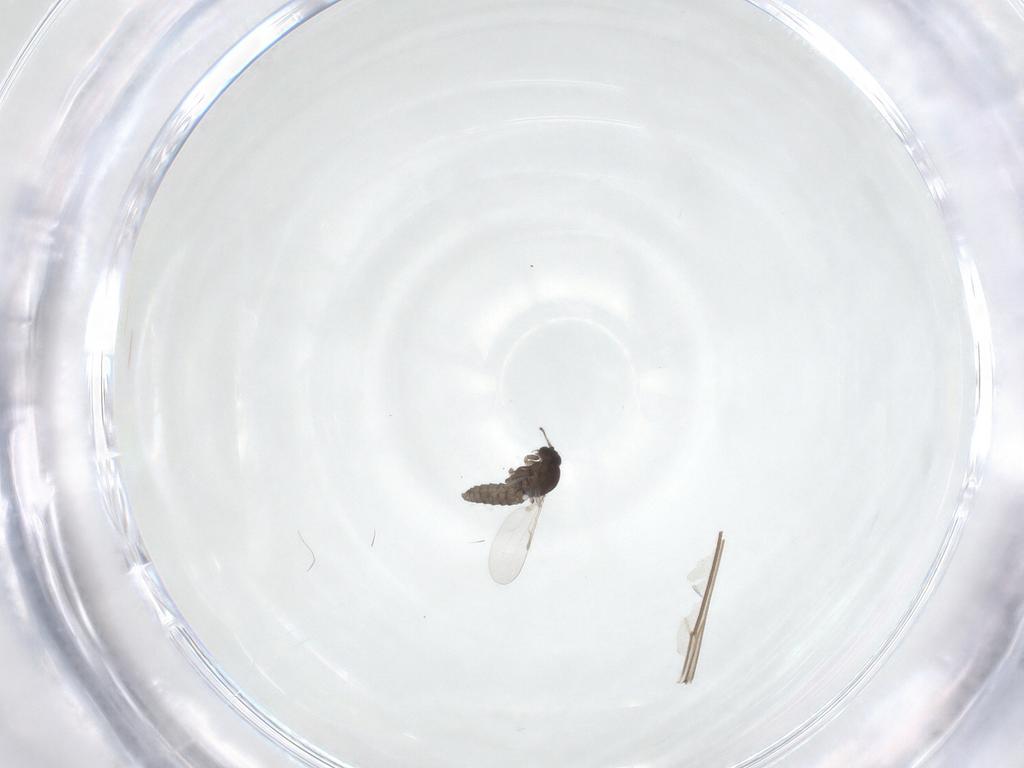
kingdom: Animalia
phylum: Arthropoda
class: Insecta
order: Diptera
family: Ceratopogonidae
